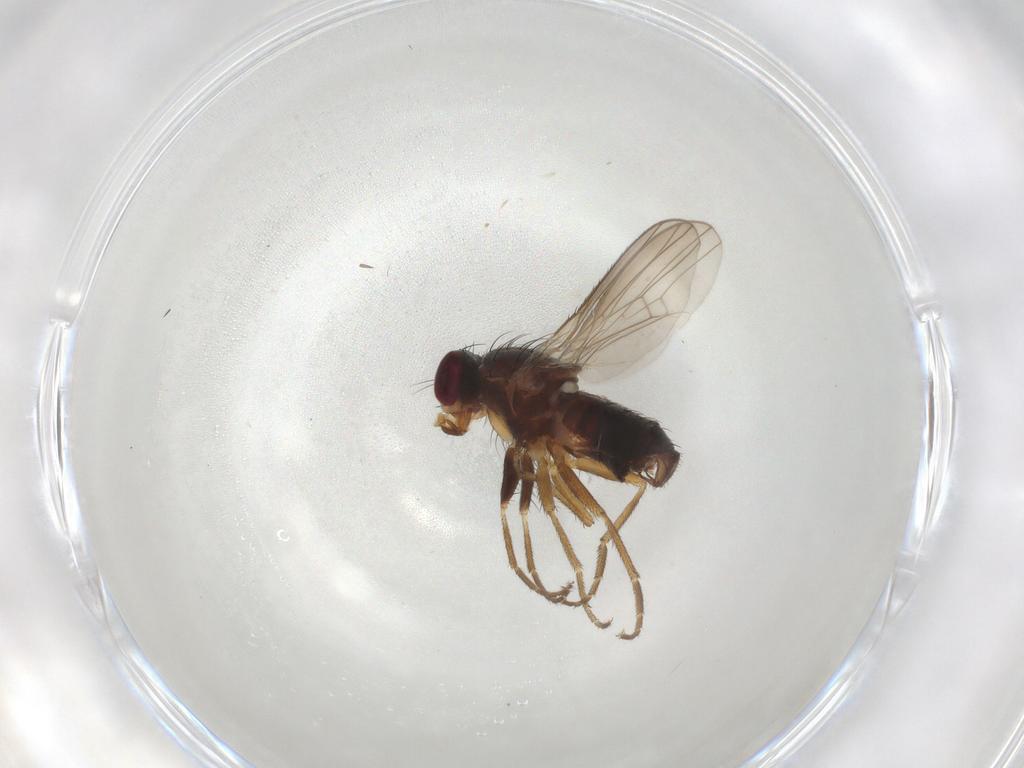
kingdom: Animalia
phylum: Arthropoda
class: Insecta
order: Diptera
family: Heleomyzidae
